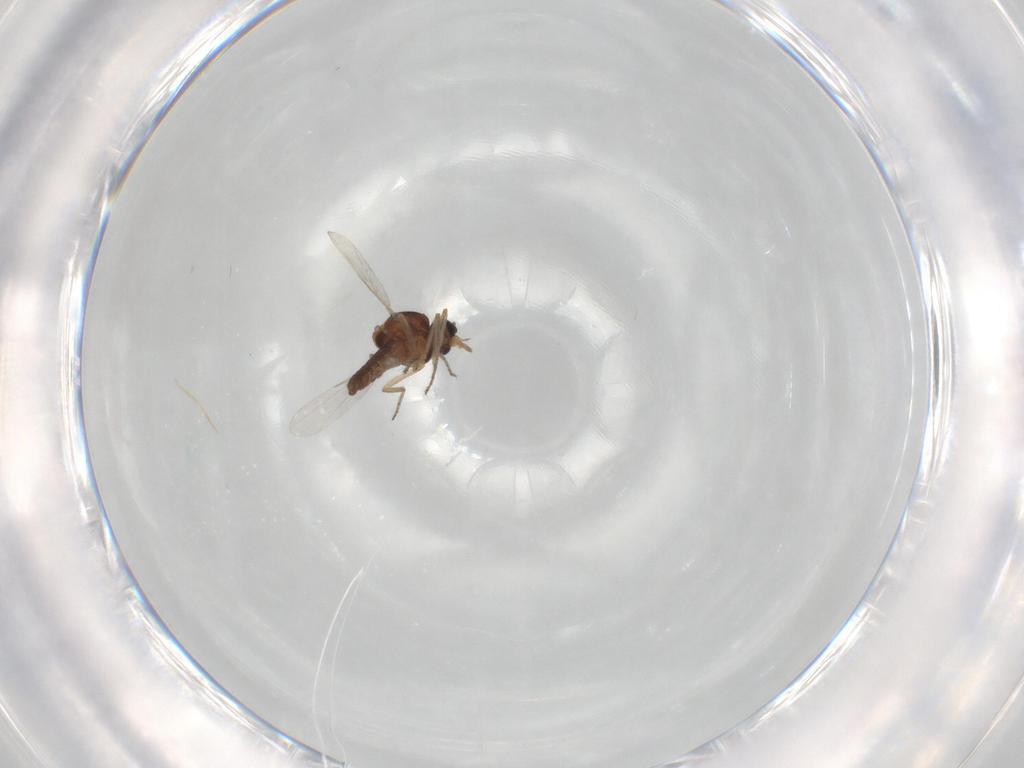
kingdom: Animalia
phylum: Arthropoda
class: Insecta
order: Diptera
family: Ceratopogonidae
